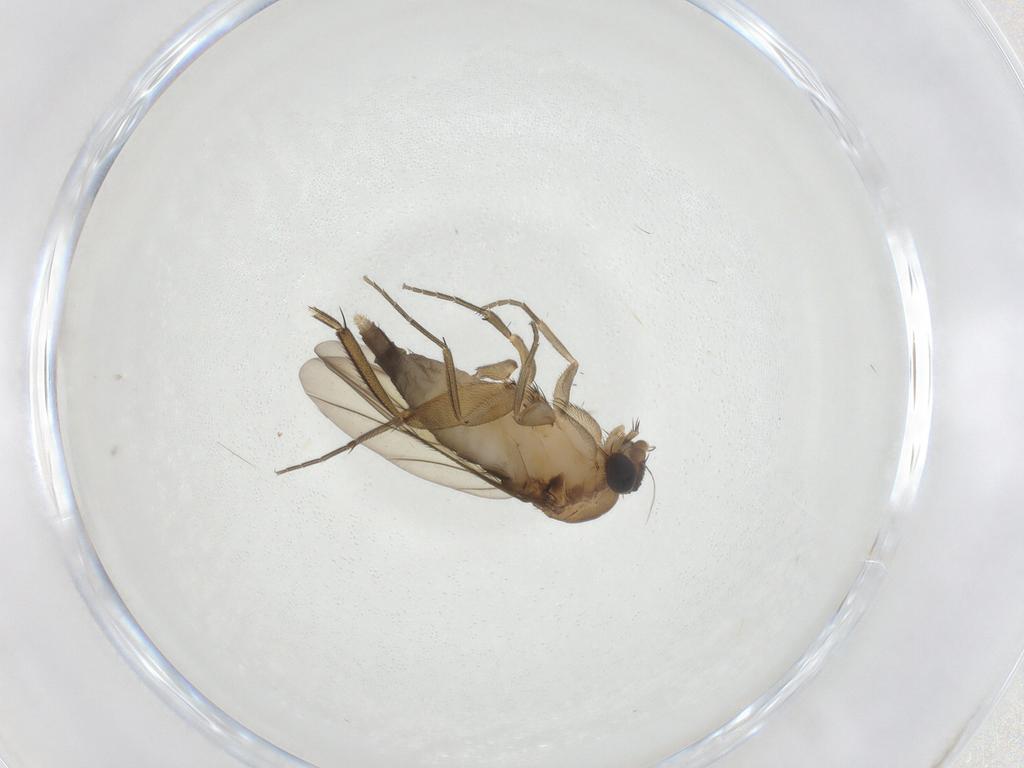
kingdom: Animalia
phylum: Arthropoda
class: Insecta
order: Diptera
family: Phoridae
